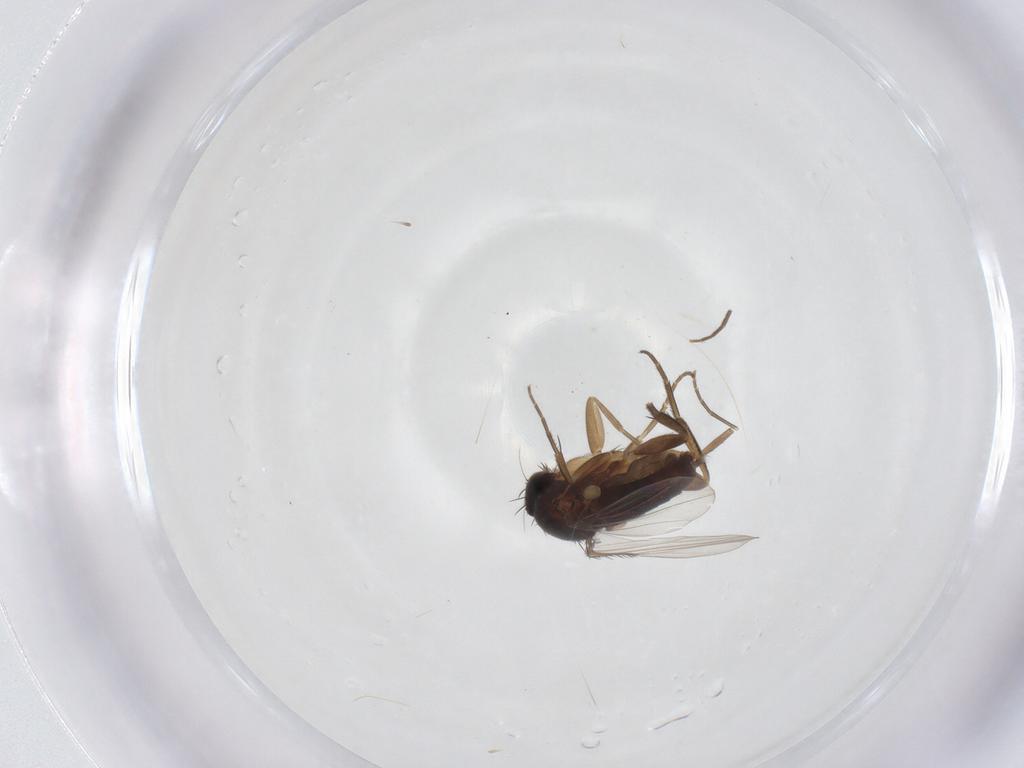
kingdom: Animalia
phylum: Arthropoda
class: Insecta
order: Diptera
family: Phoridae
